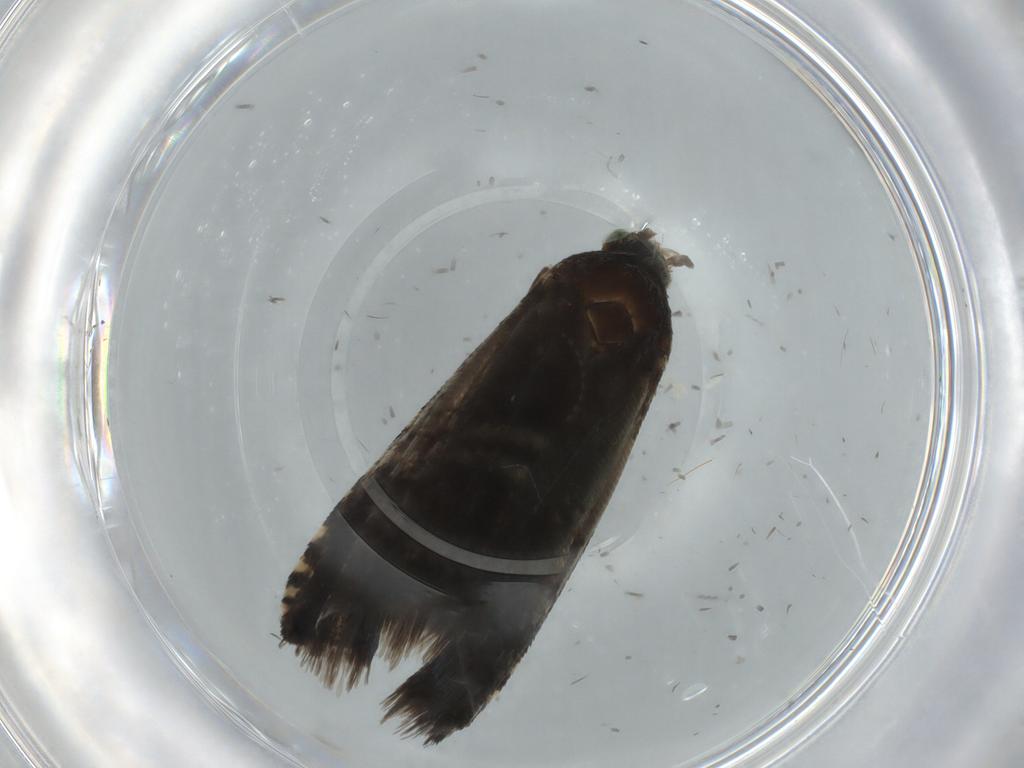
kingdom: Animalia
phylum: Arthropoda
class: Insecta
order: Lepidoptera
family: Tortricidae
